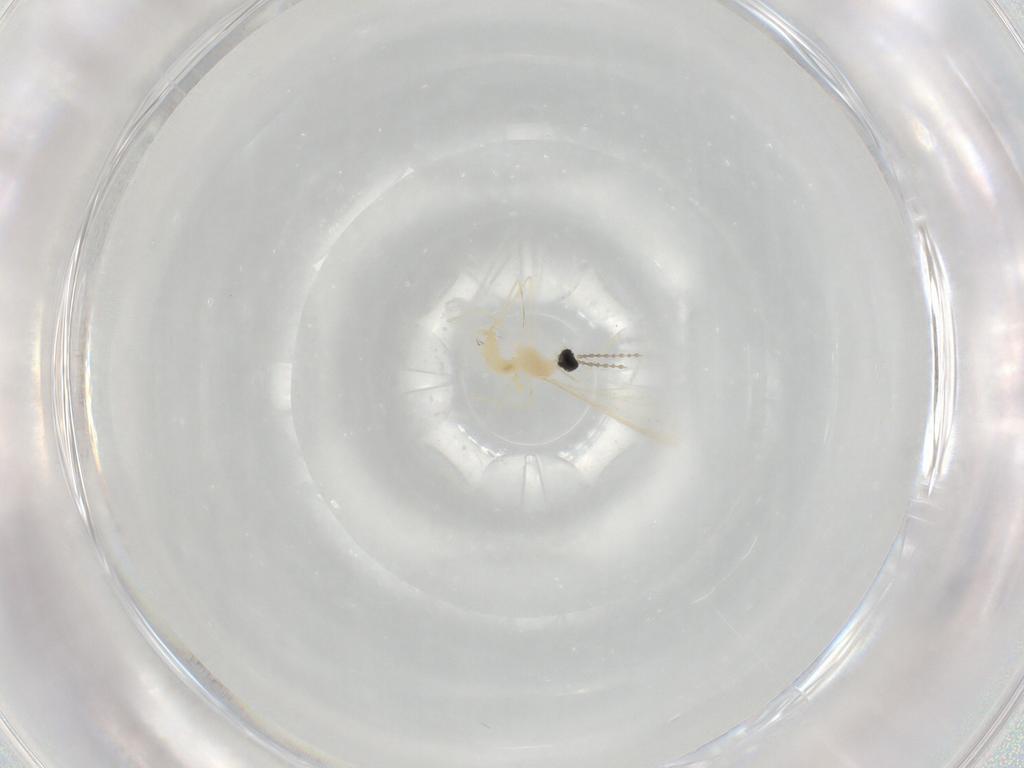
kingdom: Animalia
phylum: Arthropoda
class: Insecta
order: Diptera
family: Cecidomyiidae
